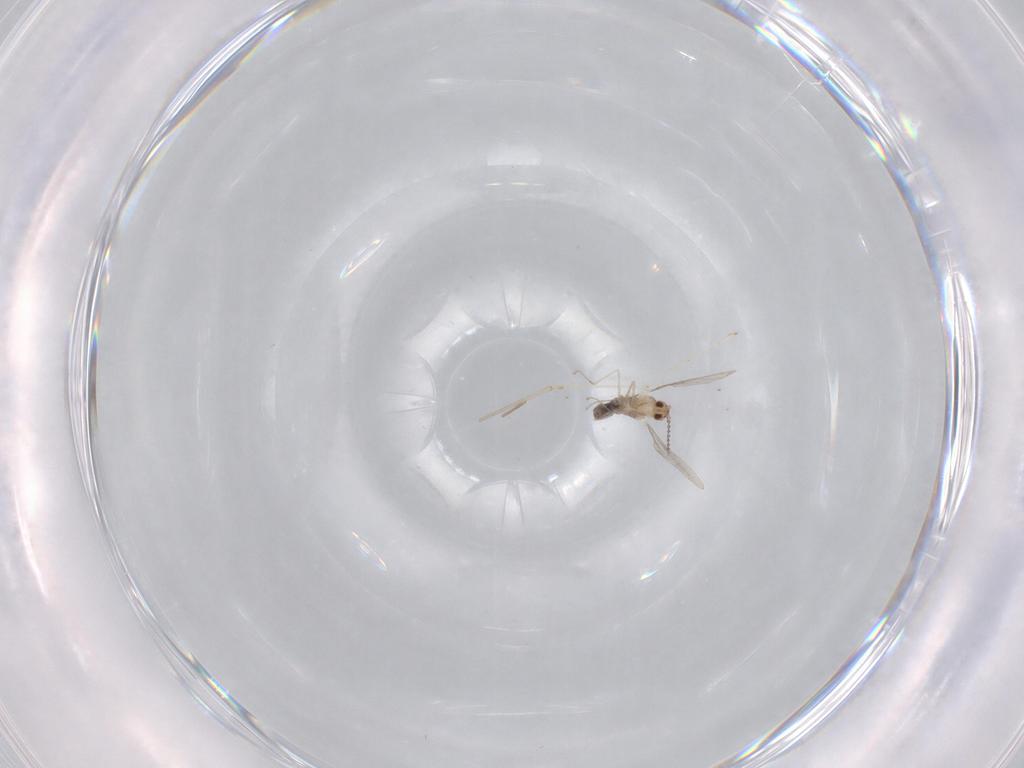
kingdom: Animalia
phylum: Arthropoda
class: Insecta
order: Diptera
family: Cecidomyiidae
